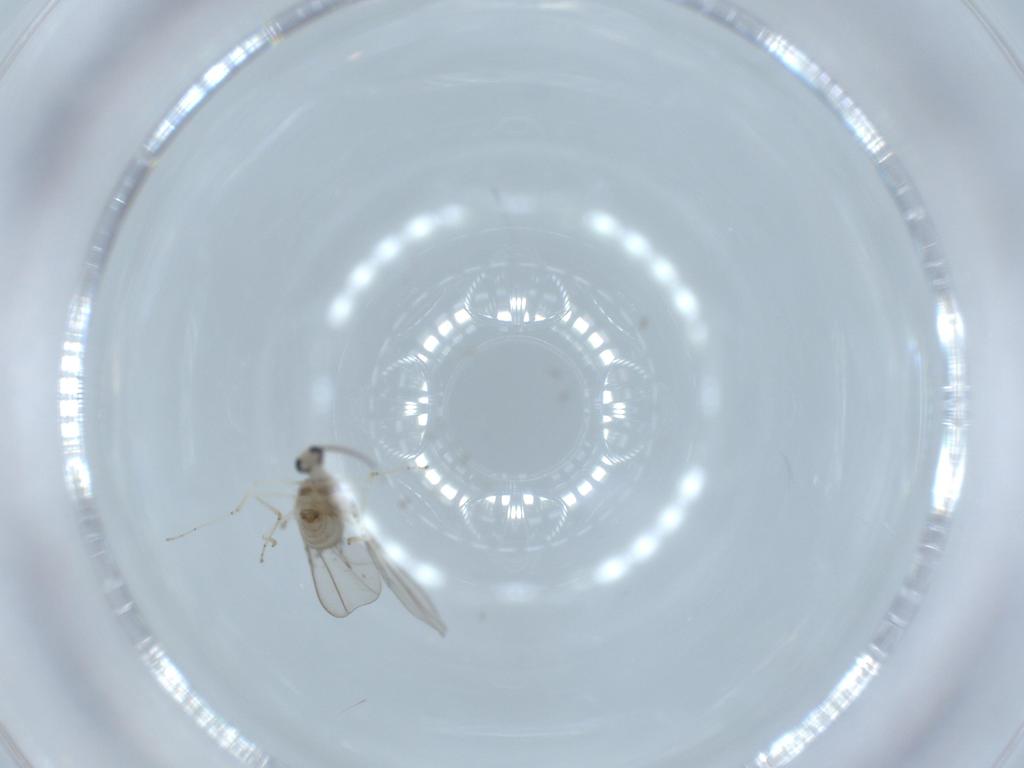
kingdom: Animalia
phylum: Arthropoda
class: Insecta
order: Diptera
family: Cecidomyiidae
